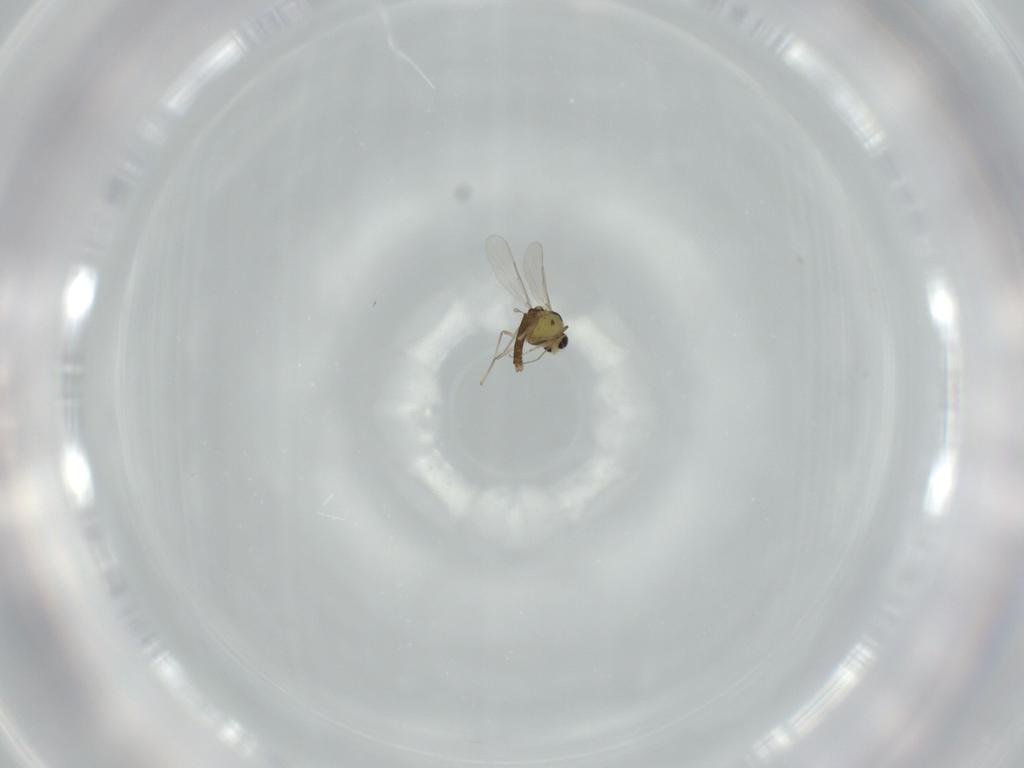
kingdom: Animalia
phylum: Arthropoda
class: Insecta
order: Diptera
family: Chironomidae
